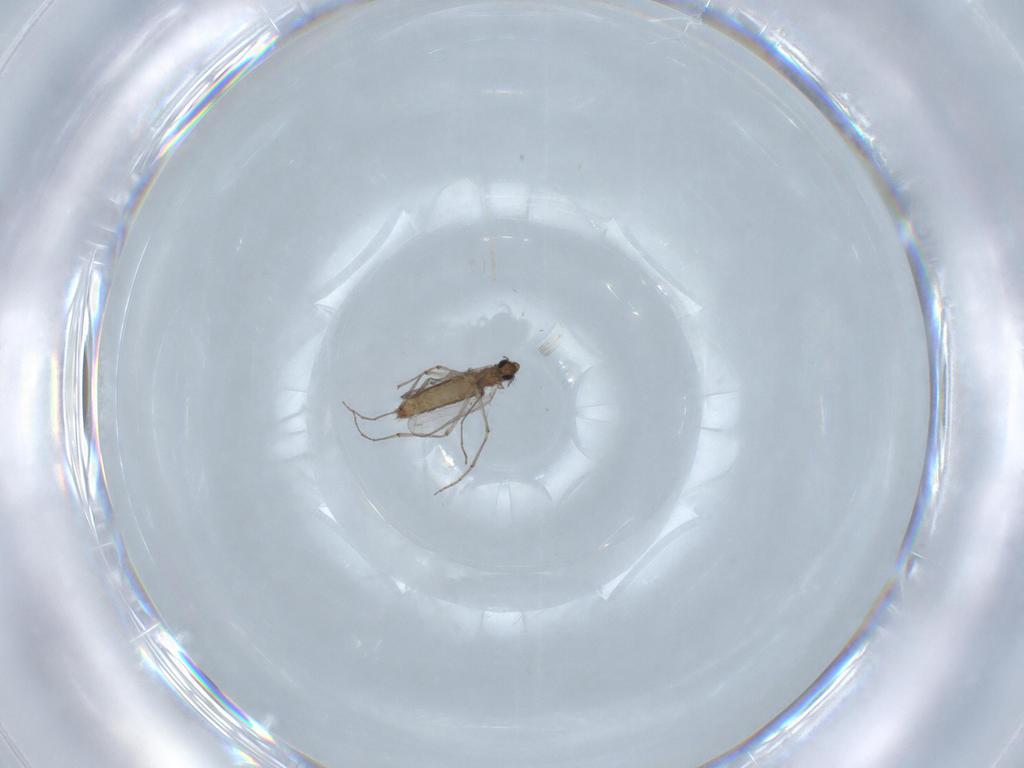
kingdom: Animalia
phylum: Arthropoda
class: Insecta
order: Diptera
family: Chironomidae
